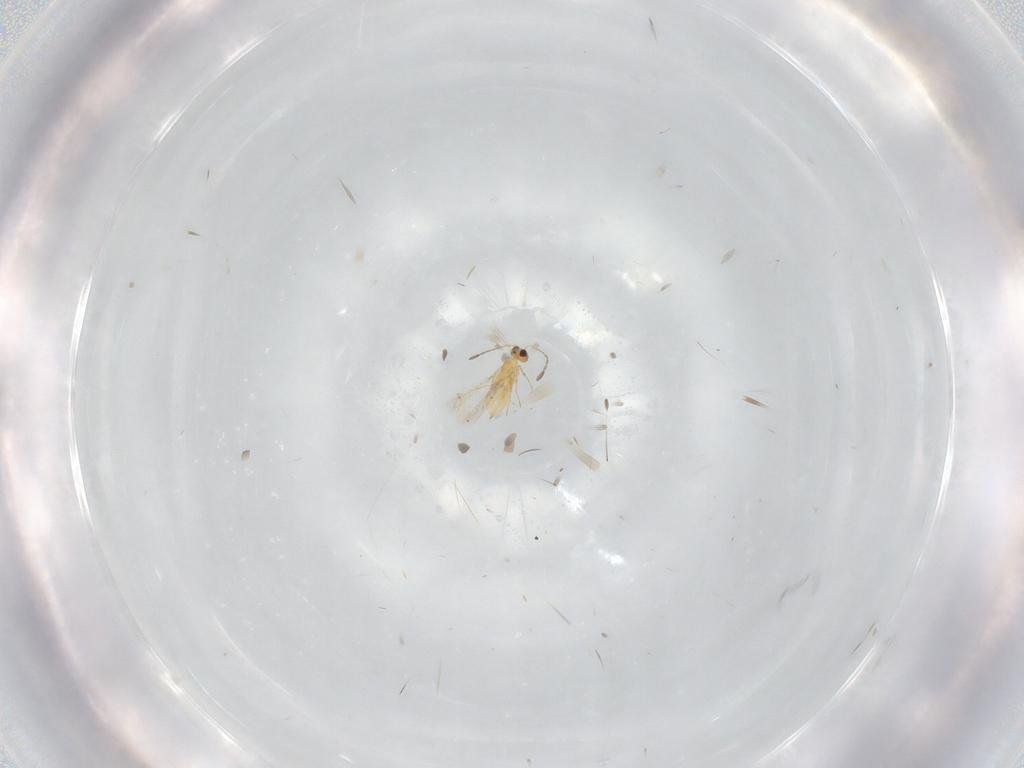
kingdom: Animalia
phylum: Arthropoda
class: Insecta
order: Hymenoptera
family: Mymaridae
